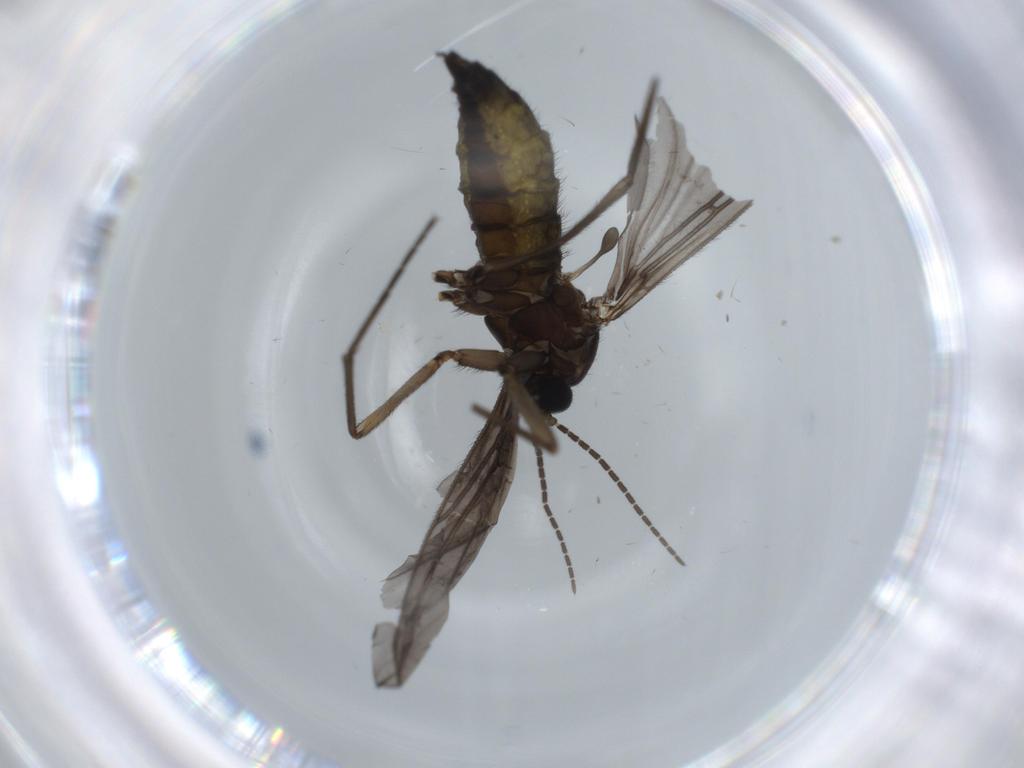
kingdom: Animalia
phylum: Arthropoda
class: Insecta
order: Diptera
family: Sciaridae
